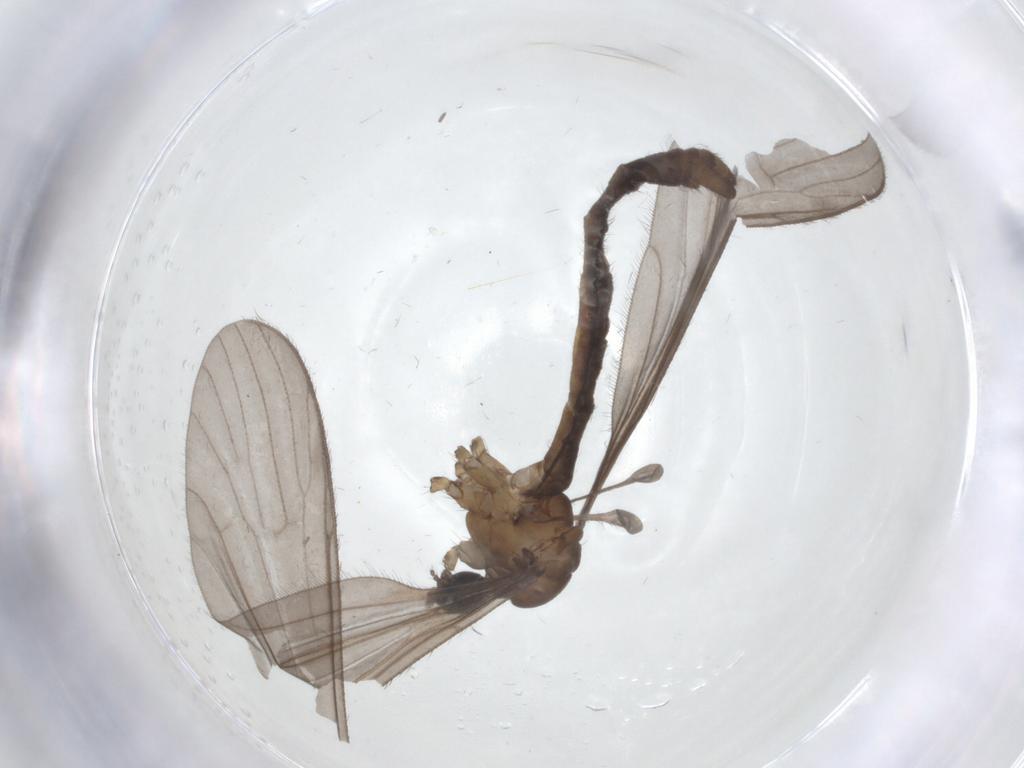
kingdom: Animalia
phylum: Arthropoda
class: Insecta
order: Diptera
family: Chironomidae
